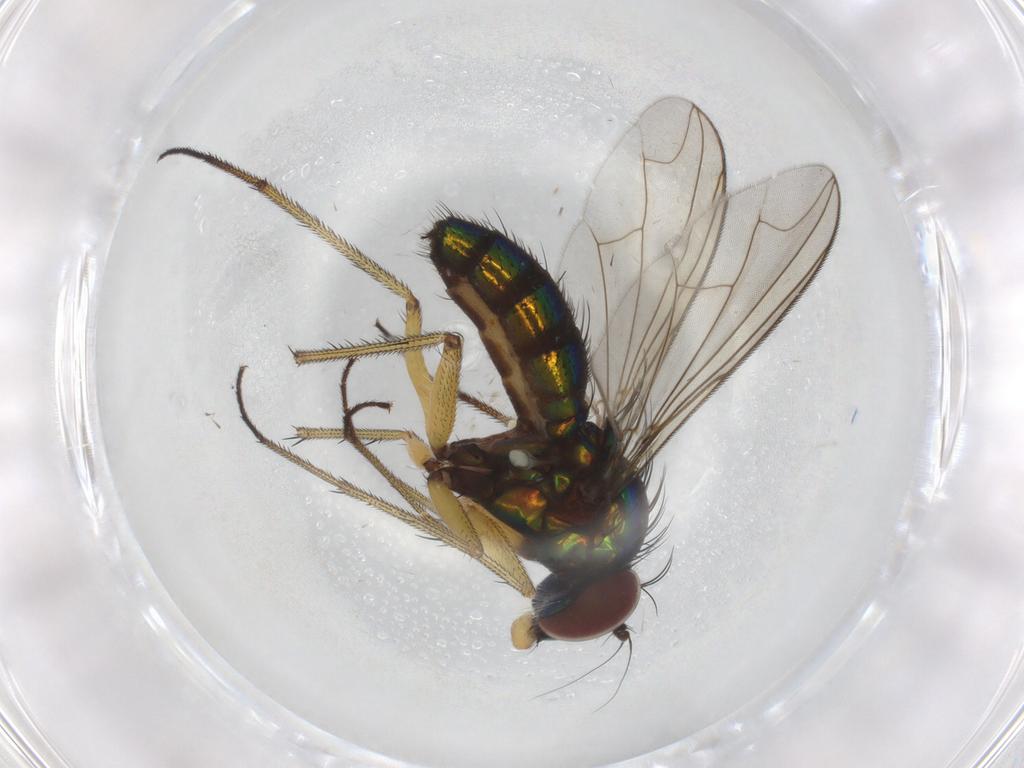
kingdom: Animalia
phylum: Arthropoda
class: Insecta
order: Diptera
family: Dolichopodidae
